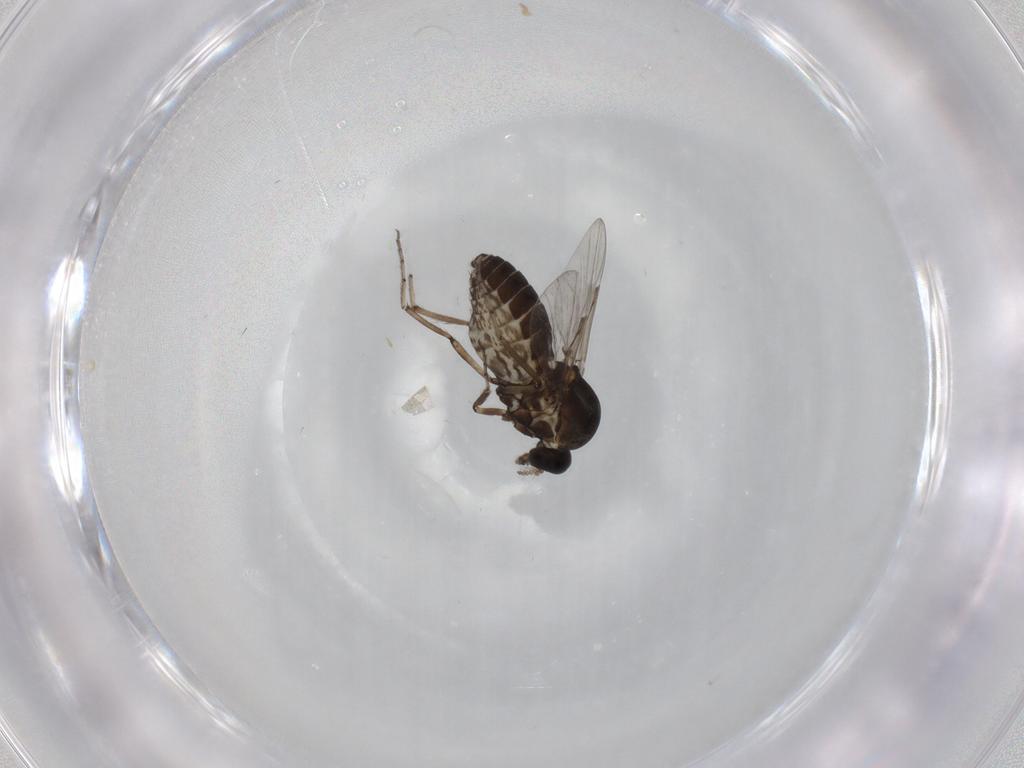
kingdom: Animalia
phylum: Arthropoda
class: Insecta
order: Diptera
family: Ceratopogonidae
